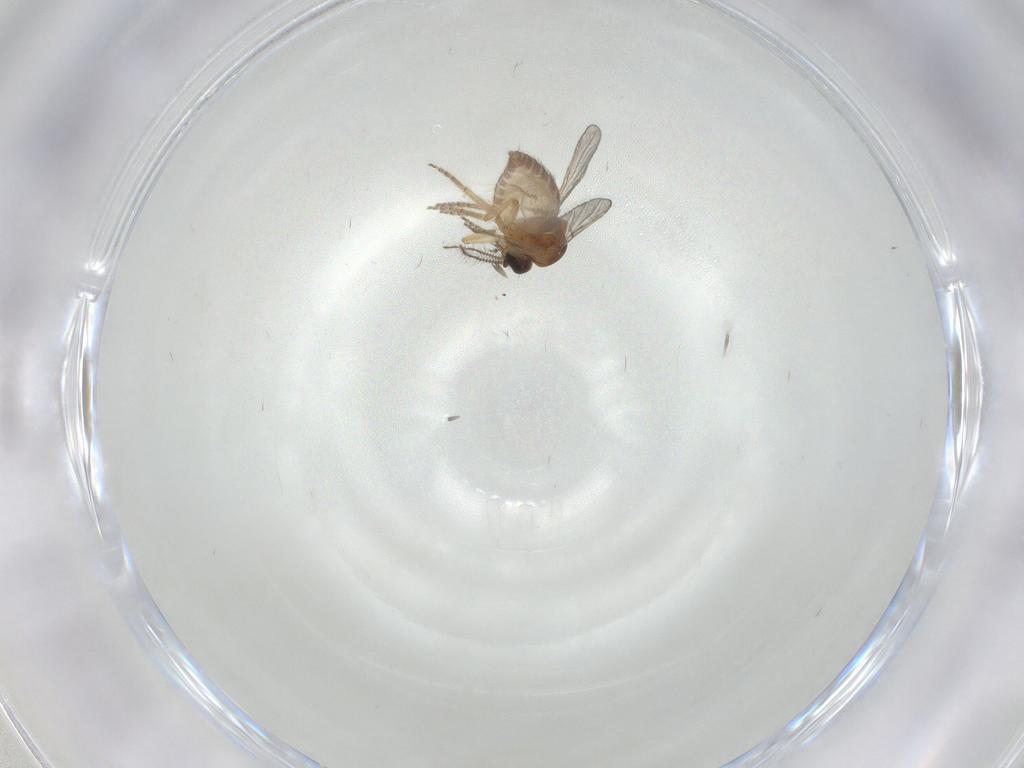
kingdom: Animalia
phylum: Arthropoda
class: Insecta
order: Diptera
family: Ceratopogonidae
